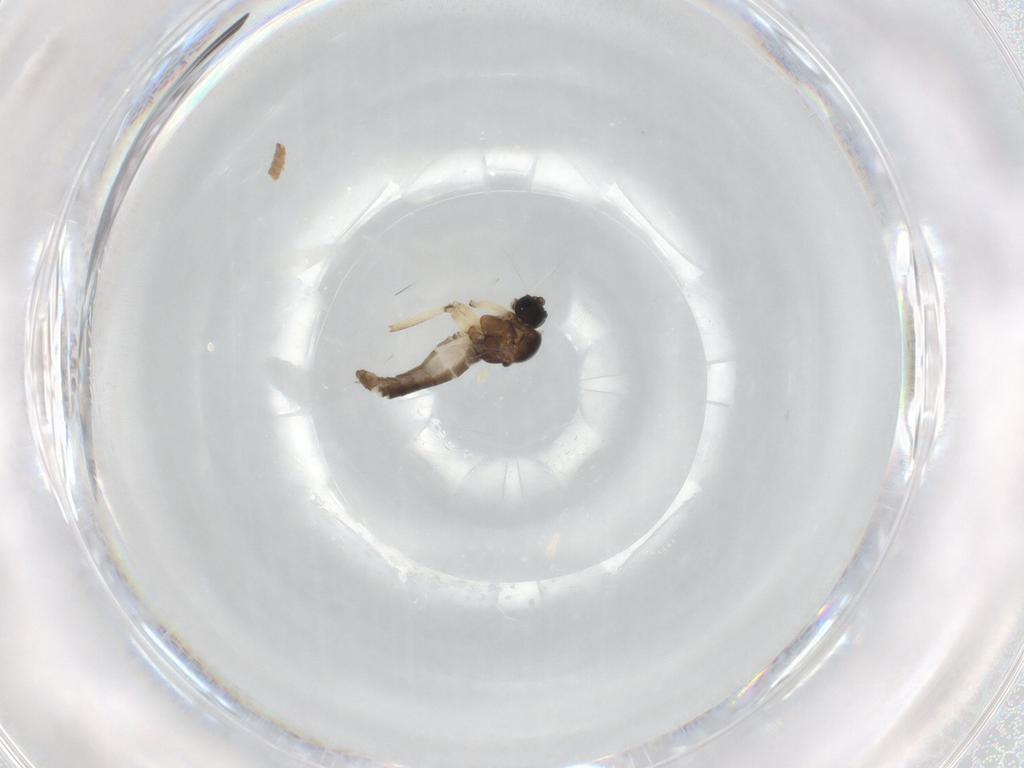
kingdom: Animalia
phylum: Arthropoda
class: Insecta
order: Diptera
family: Sciaridae
